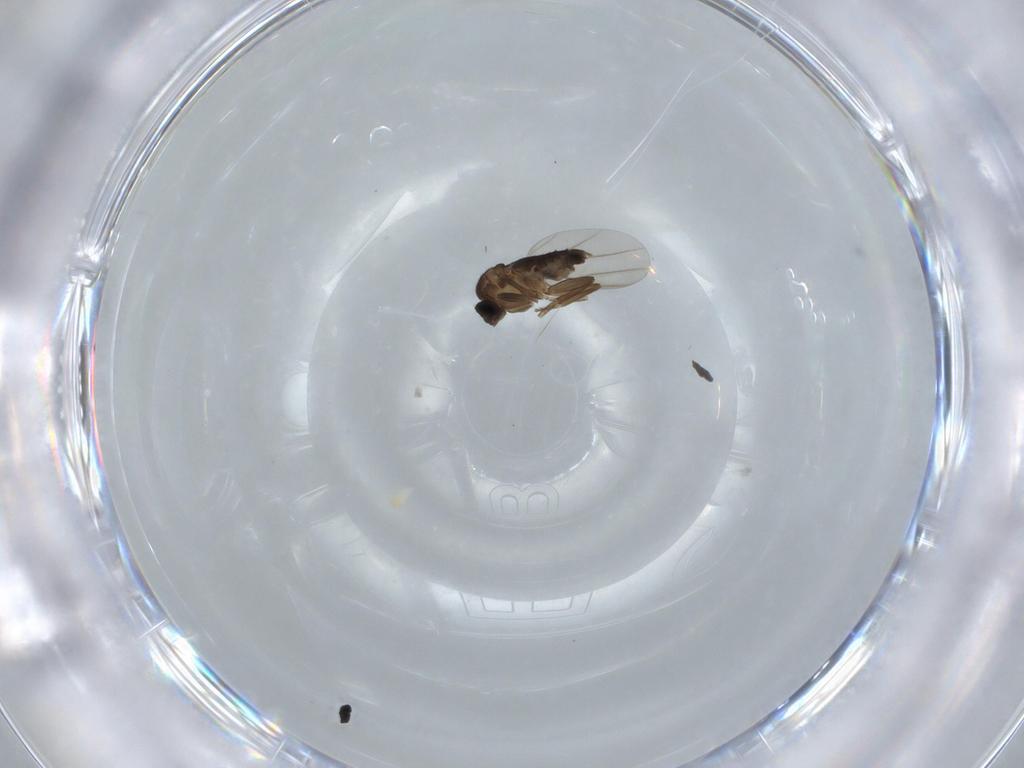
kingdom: Animalia
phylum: Arthropoda
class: Insecta
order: Diptera
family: Phoridae
